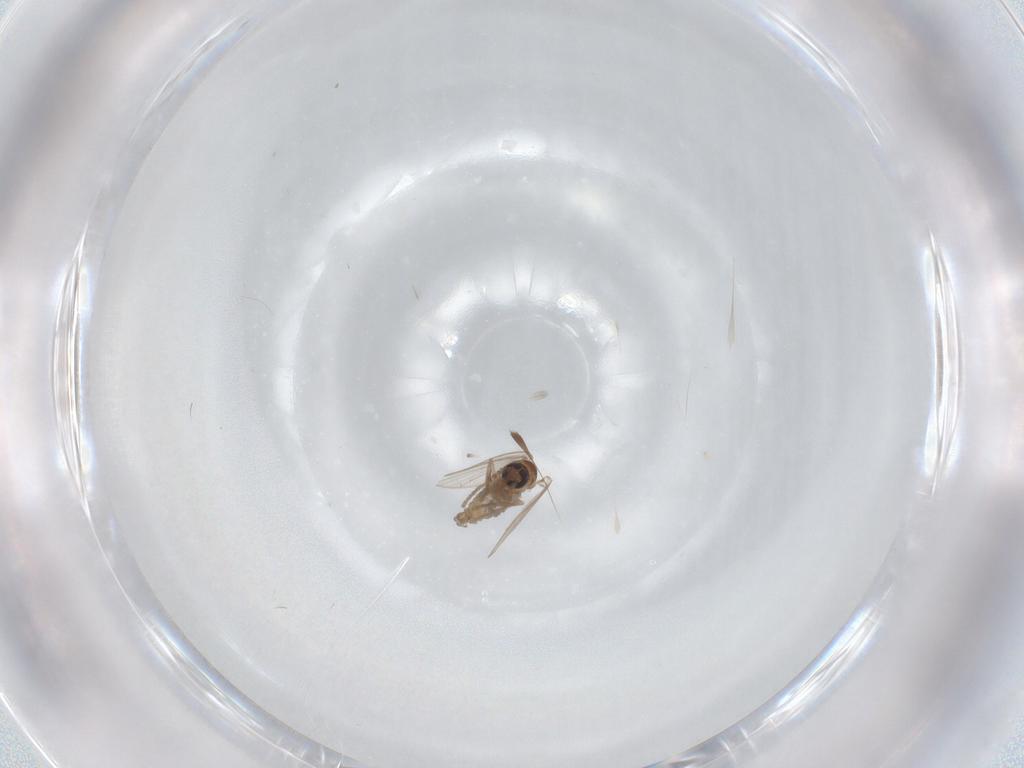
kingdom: Animalia
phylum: Arthropoda
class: Insecta
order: Diptera
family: Psychodidae
